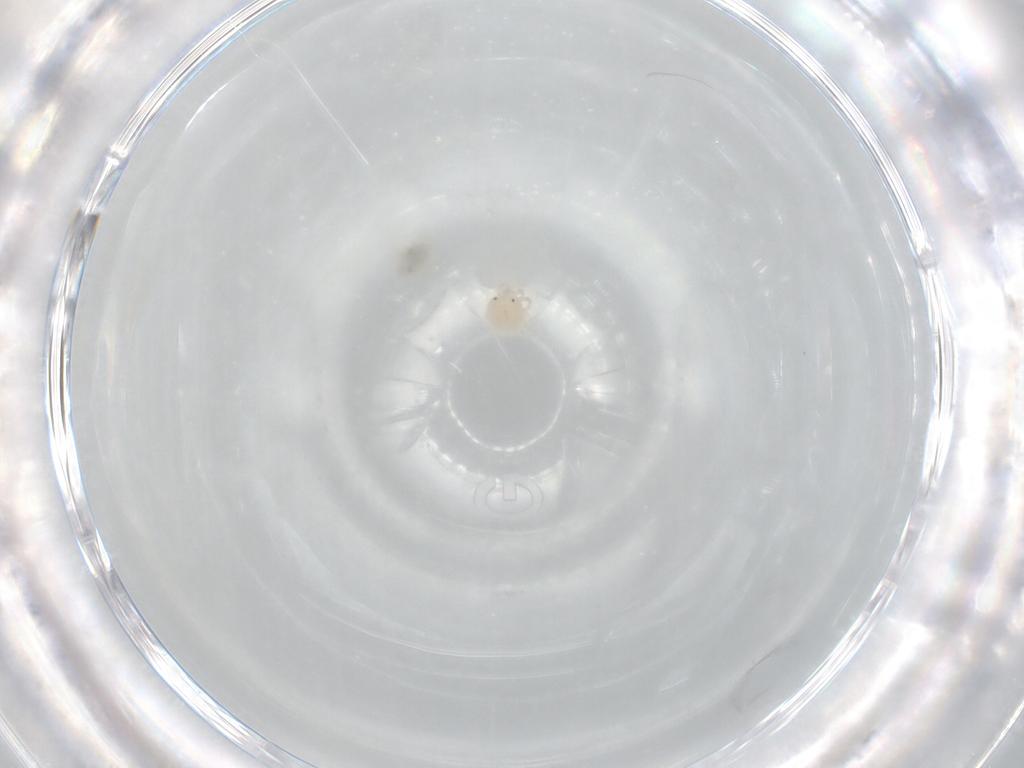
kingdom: Animalia
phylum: Arthropoda
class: Arachnida
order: Trombidiformes
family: Sperchontidae
